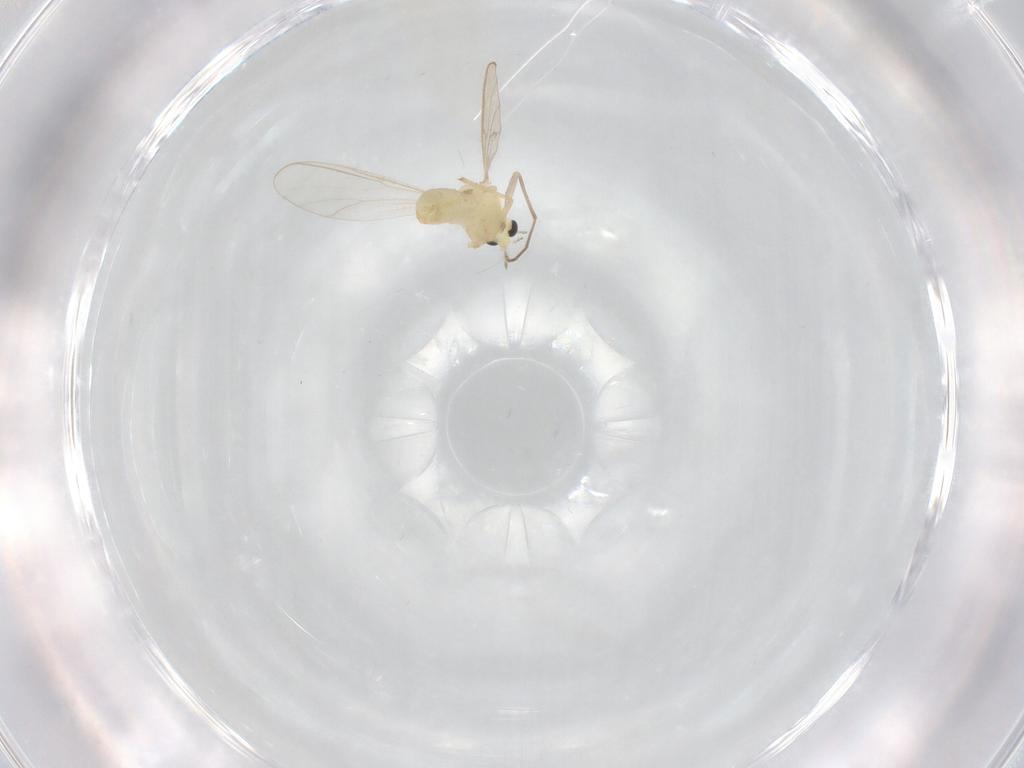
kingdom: Animalia
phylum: Arthropoda
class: Insecta
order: Diptera
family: Chironomidae
